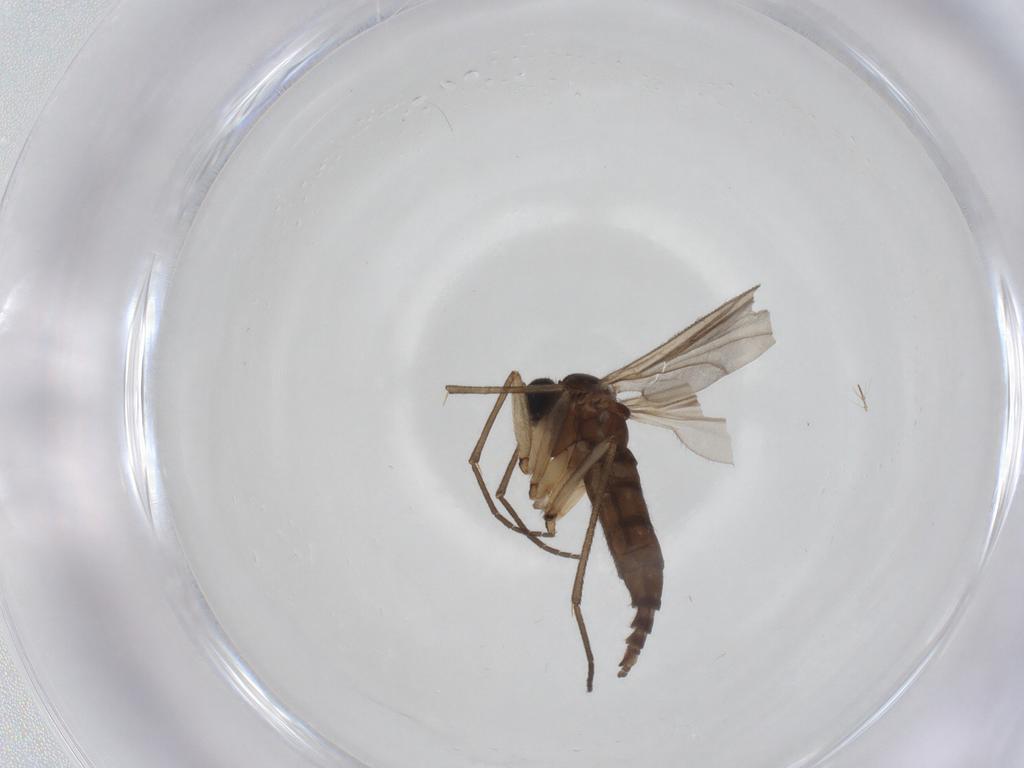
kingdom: Animalia
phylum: Arthropoda
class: Insecta
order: Diptera
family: Sciaridae
